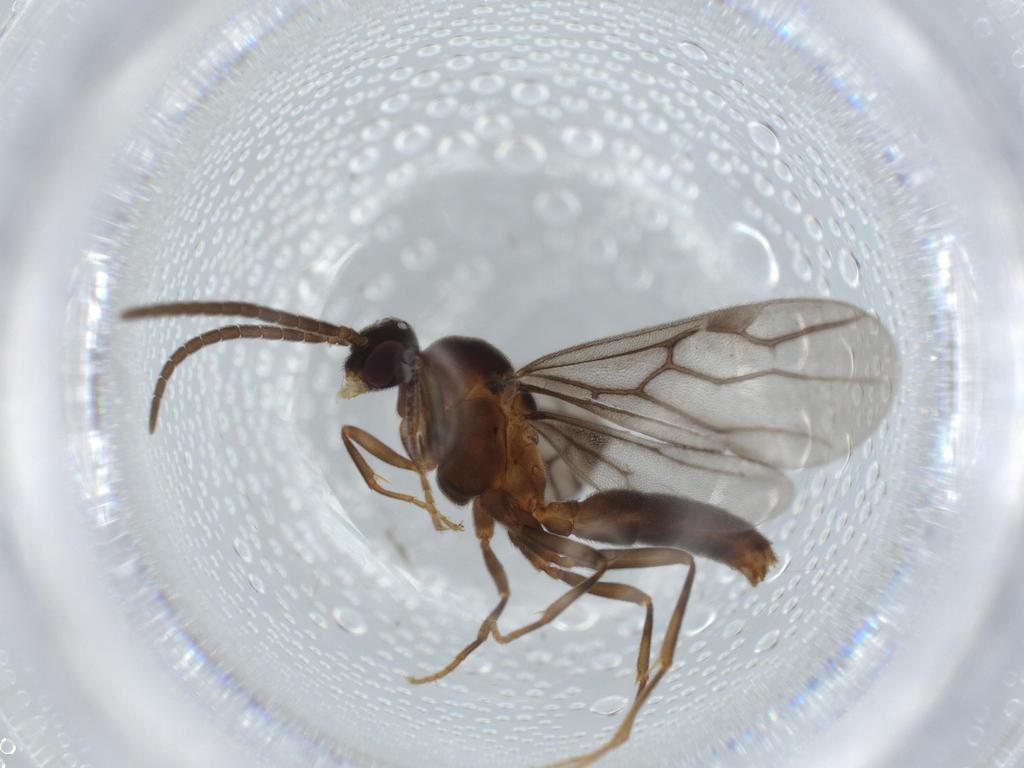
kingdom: Animalia
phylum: Arthropoda
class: Insecta
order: Hymenoptera
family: Formicidae
